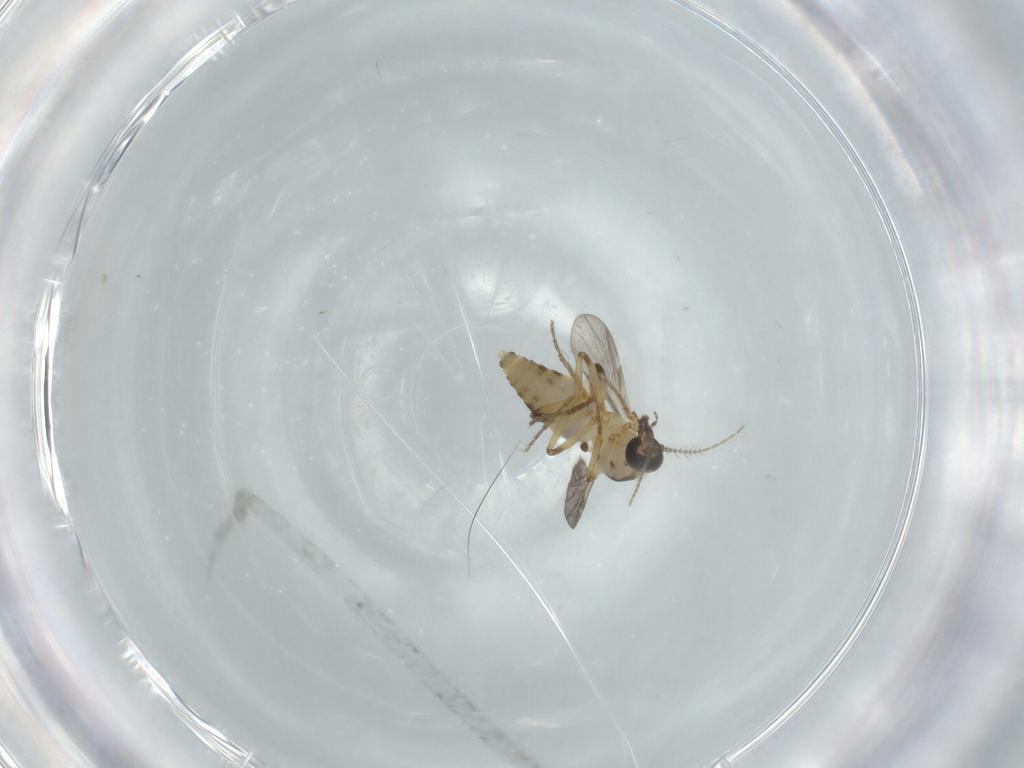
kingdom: Animalia
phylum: Arthropoda
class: Insecta
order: Diptera
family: Ceratopogonidae
